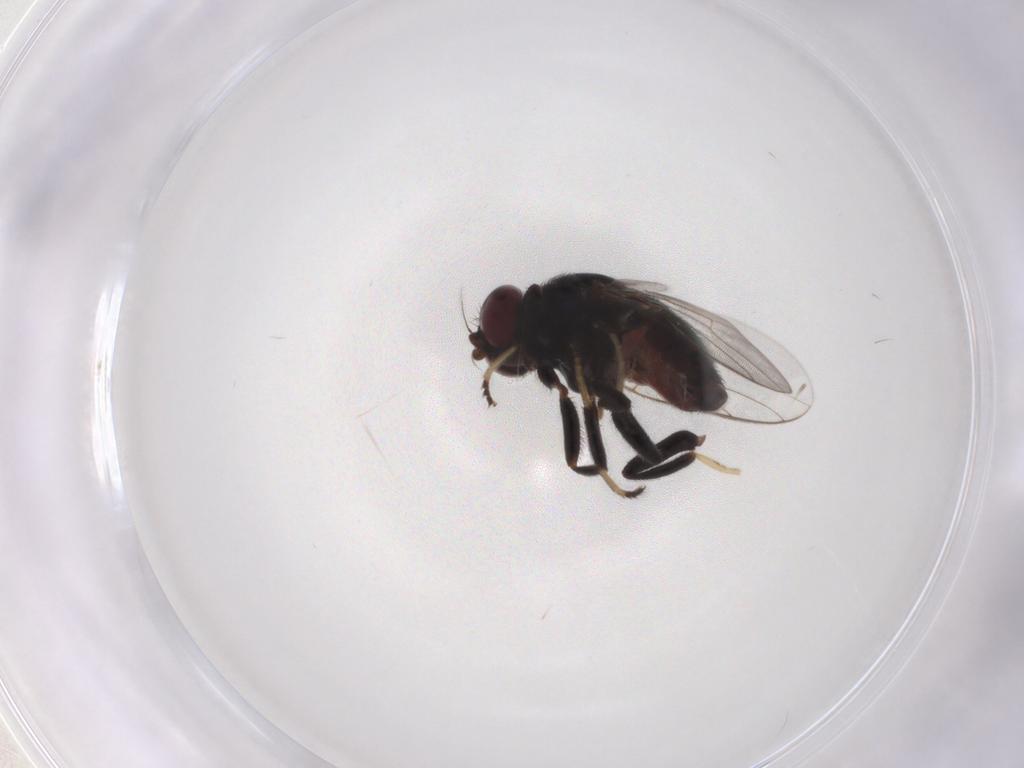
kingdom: Animalia
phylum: Arthropoda
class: Insecta
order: Diptera
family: Chloropidae
